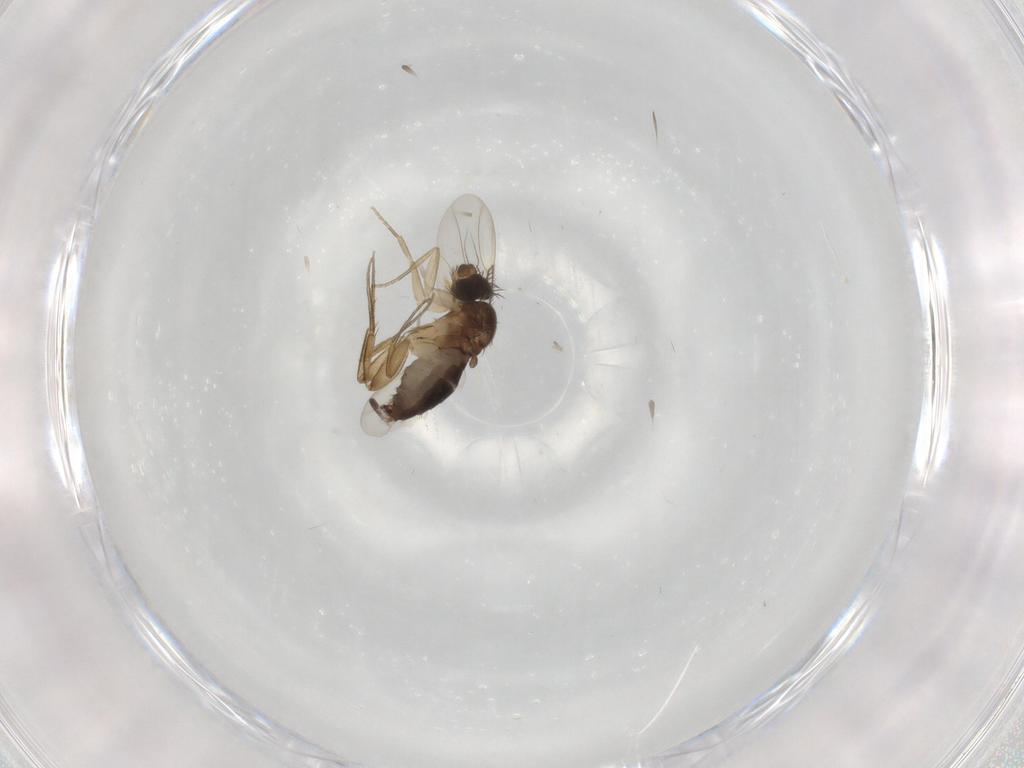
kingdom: Animalia
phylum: Arthropoda
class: Insecta
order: Diptera
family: Phoridae
